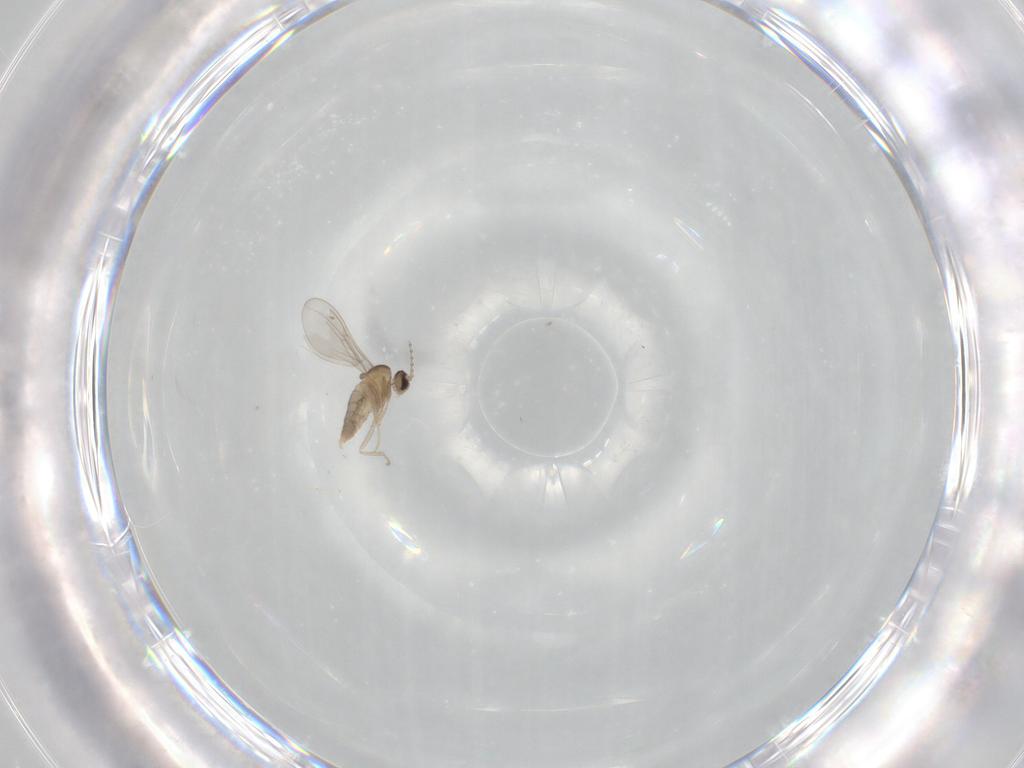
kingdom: Animalia
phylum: Arthropoda
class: Insecta
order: Diptera
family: Cecidomyiidae
